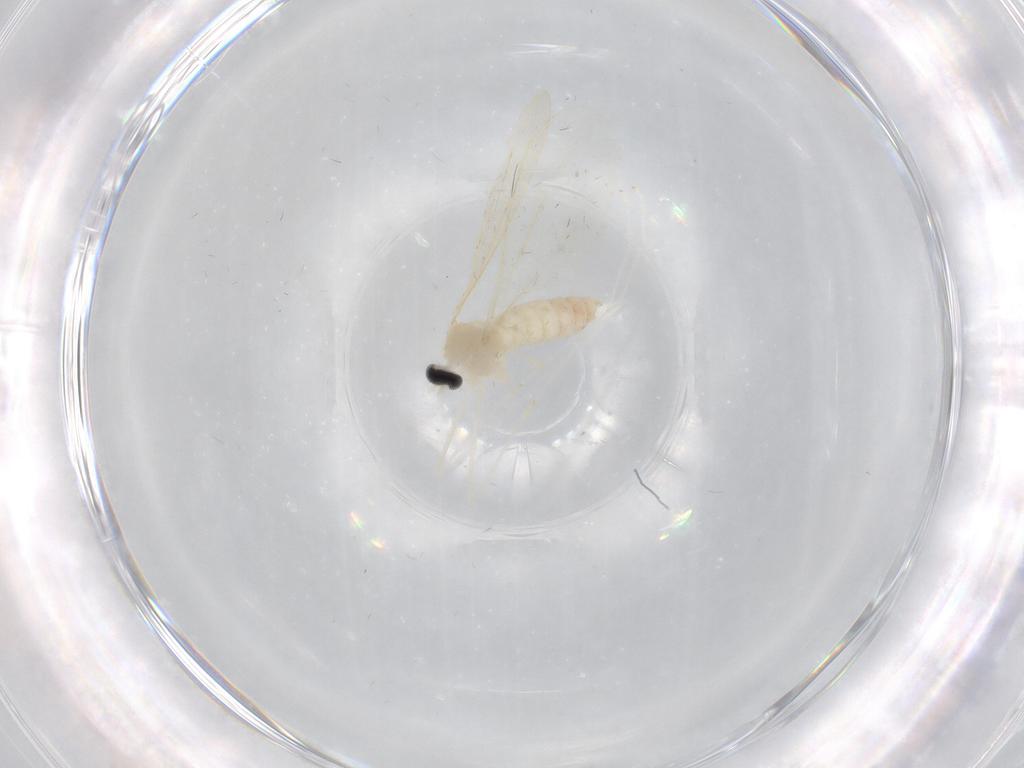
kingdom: Animalia
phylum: Arthropoda
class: Insecta
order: Diptera
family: Cecidomyiidae
